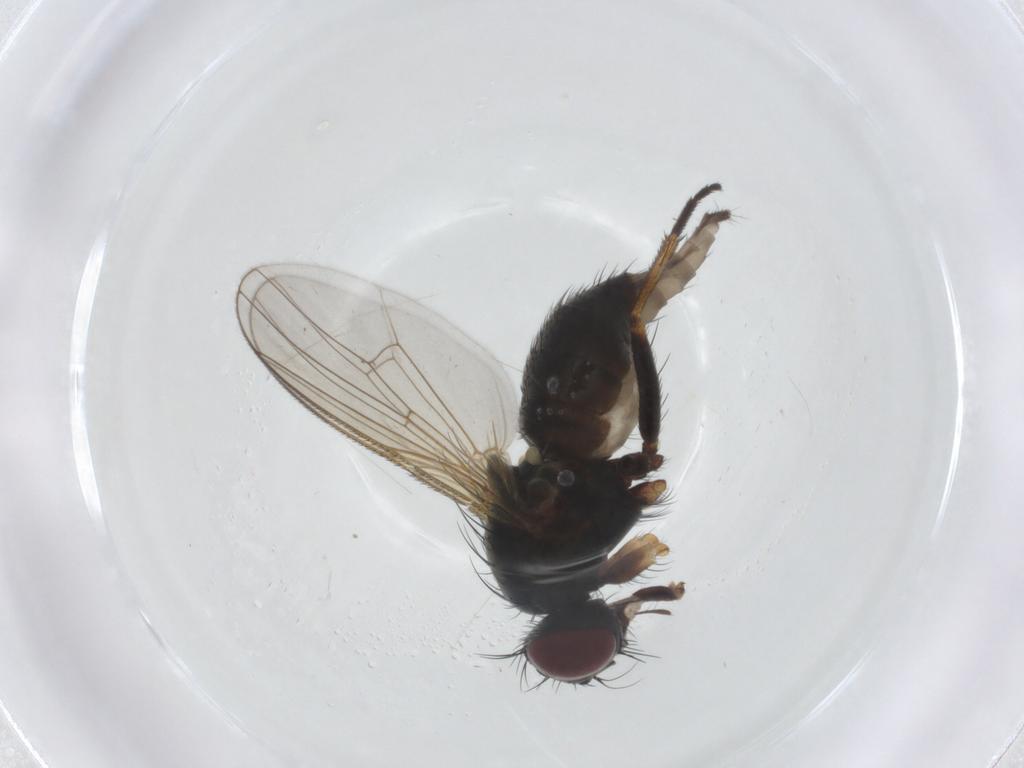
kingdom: Animalia
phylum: Arthropoda
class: Insecta
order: Diptera
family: Muscidae
